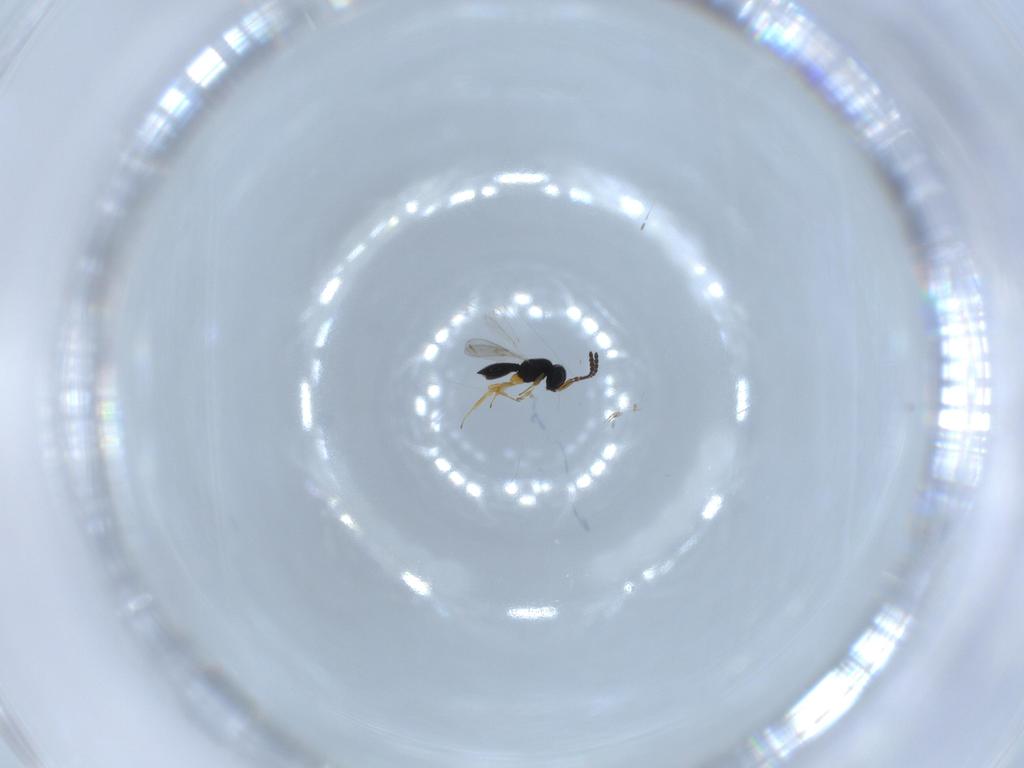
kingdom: Animalia
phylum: Arthropoda
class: Insecta
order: Hymenoptera
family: Scelionidae
